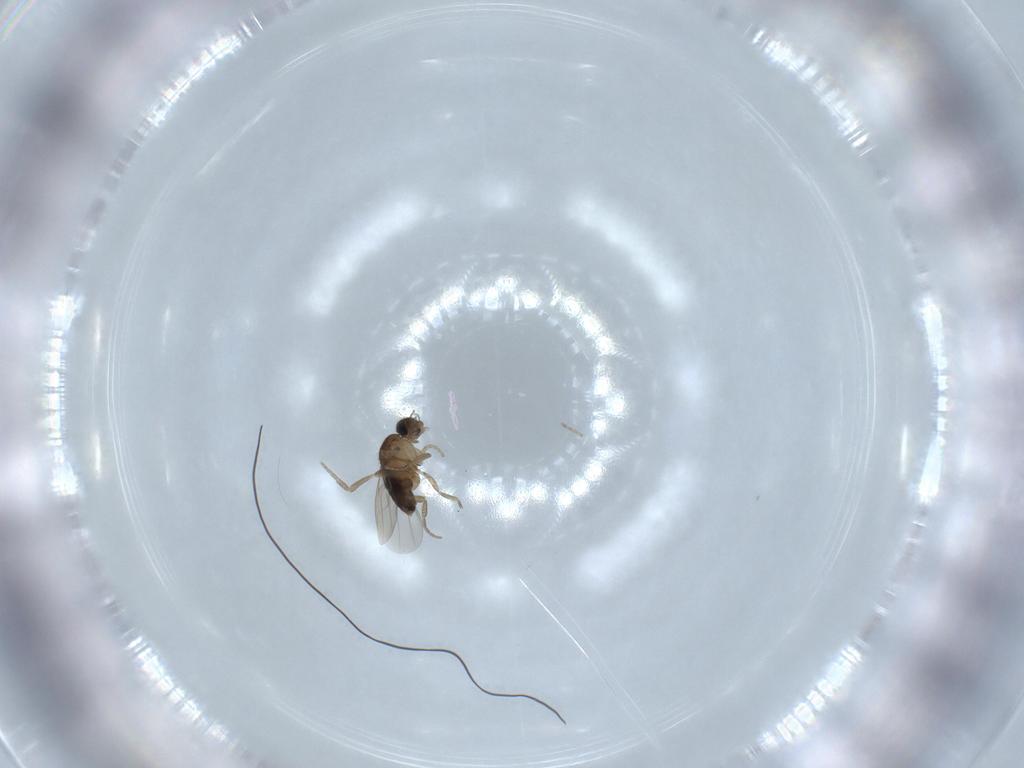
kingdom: Animalia
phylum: Arthropoda
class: Insecta
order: Diptera
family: Phoridae
